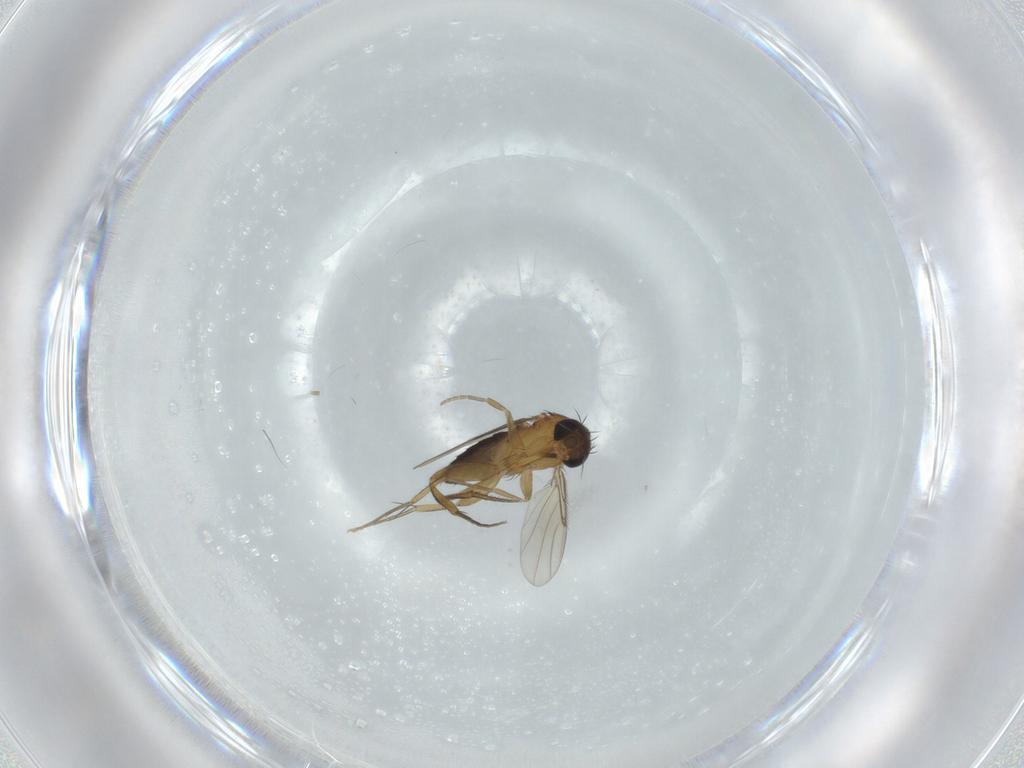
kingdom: Animalia
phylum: Arthropoda
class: Insecta
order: Diptera
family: Phoridae
